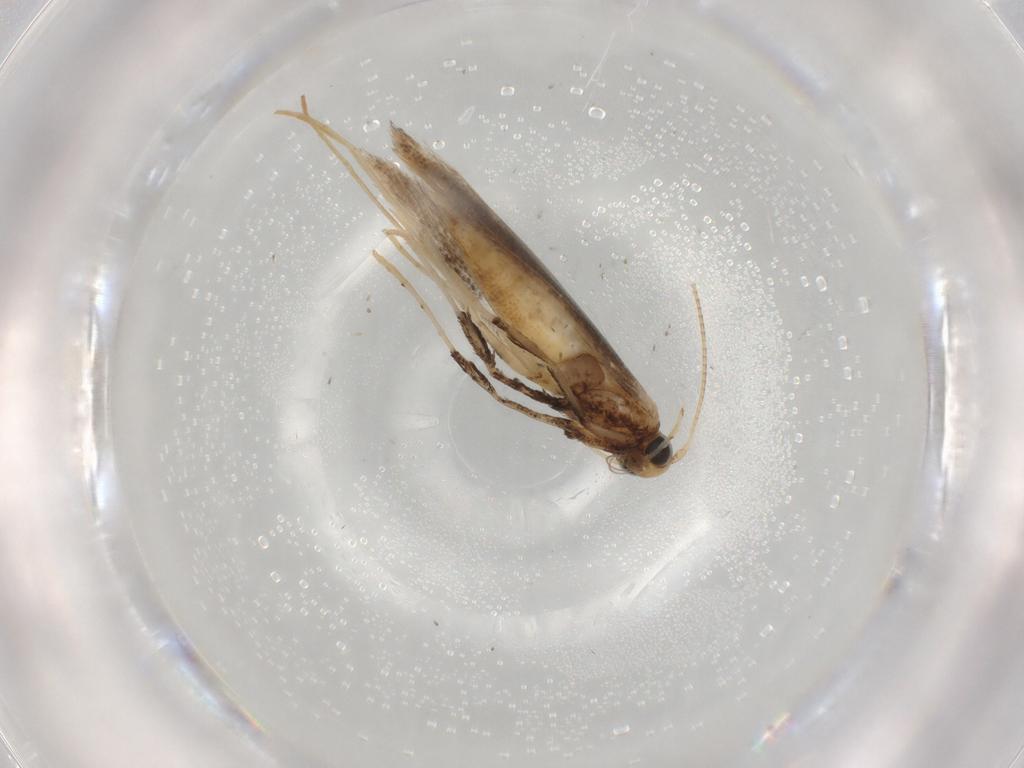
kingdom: Animalia
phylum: Arthropoda
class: Insecta
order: Lepidoptera
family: Gracillariidae
